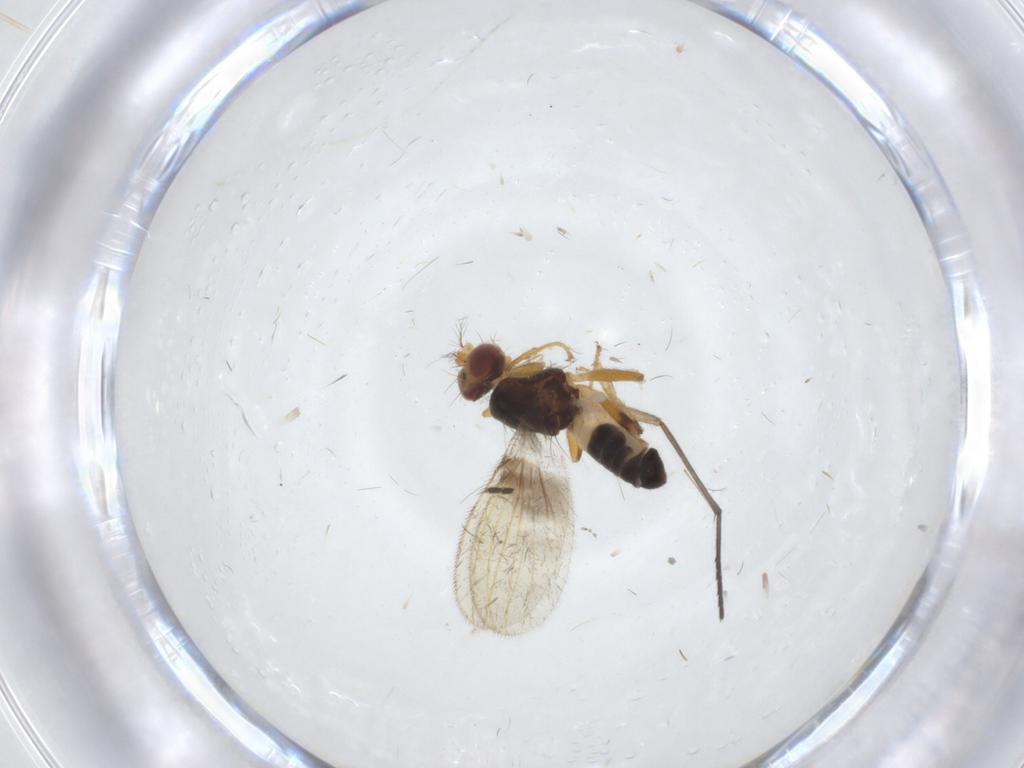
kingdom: Animalia
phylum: Arthropoda
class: Insecta
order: Diptera
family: Periscelididae
